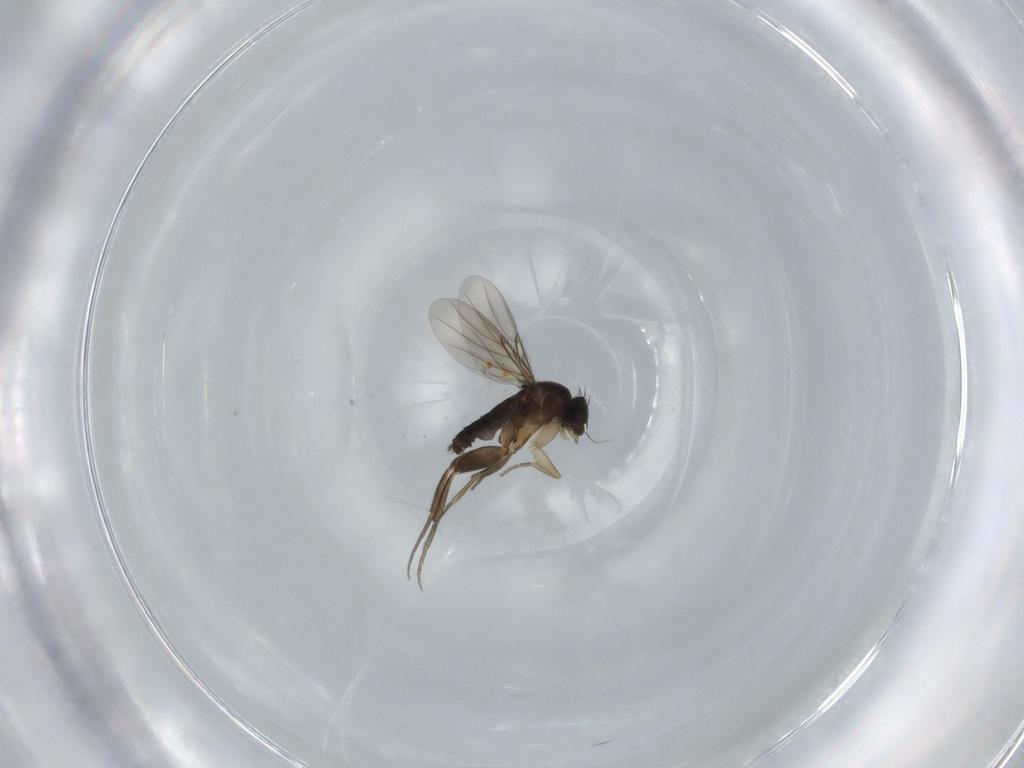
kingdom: Animalia
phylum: Arthropoda
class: Insecta
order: Diptera
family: Phoridae
